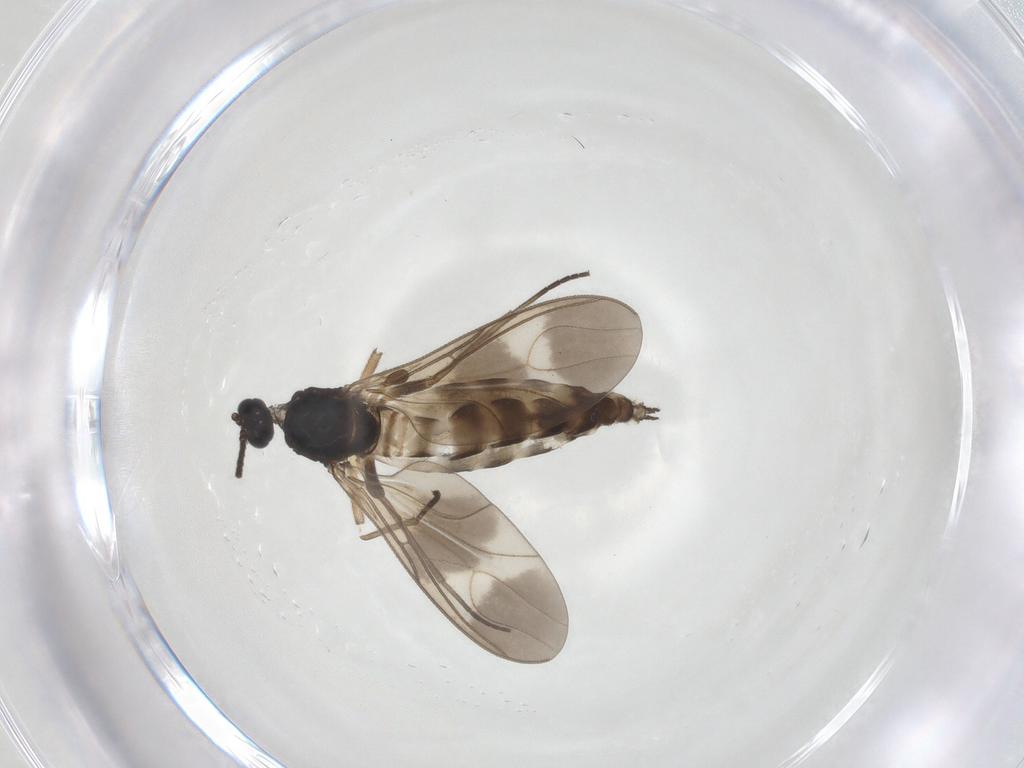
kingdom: Animalia
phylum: Arthropoda
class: Insecta
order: Diptera
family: Sciaridae
